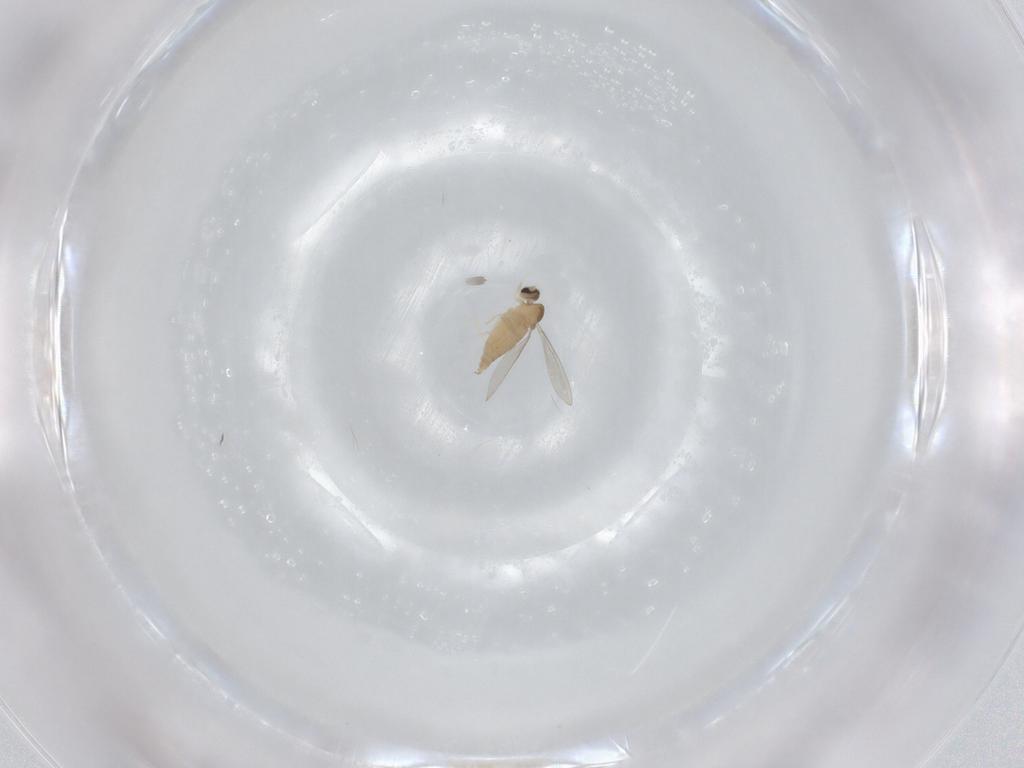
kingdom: Animalia
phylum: Arthropoda
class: Insecta
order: Diptera
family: Cecidomyiidae
